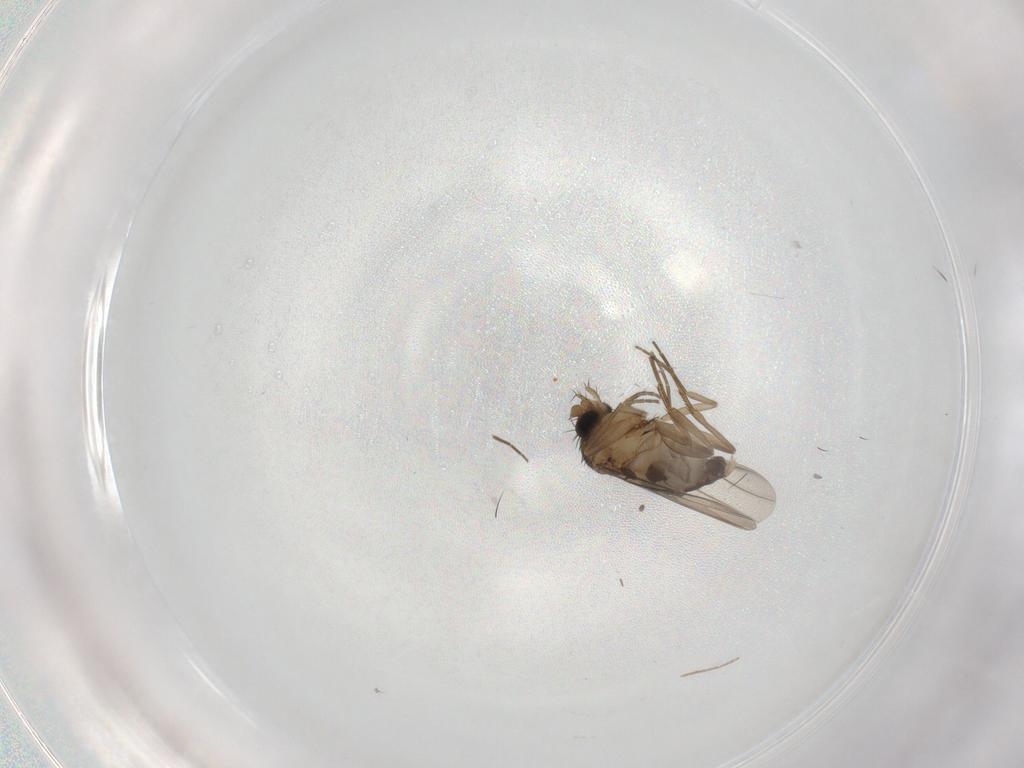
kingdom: Animalia
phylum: Arthropoda
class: Insecta
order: Diptera
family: Phoridae
